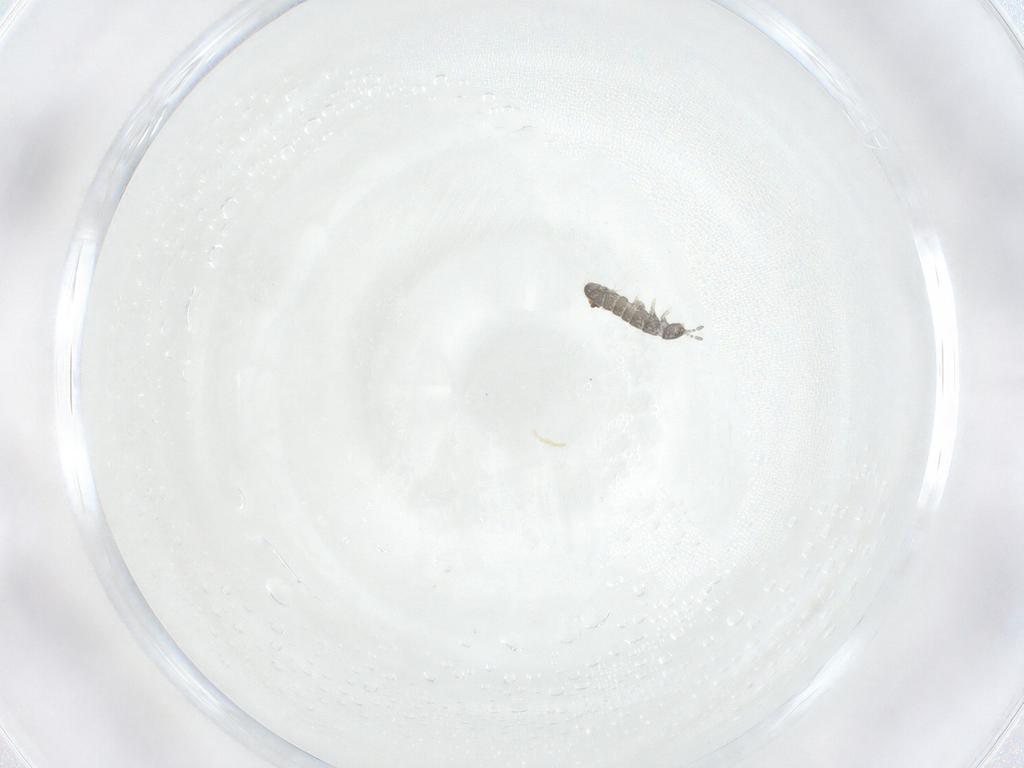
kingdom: Animalia
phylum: Arthropoda
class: Collembola
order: Entomobryomorpha
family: Isotomidae
